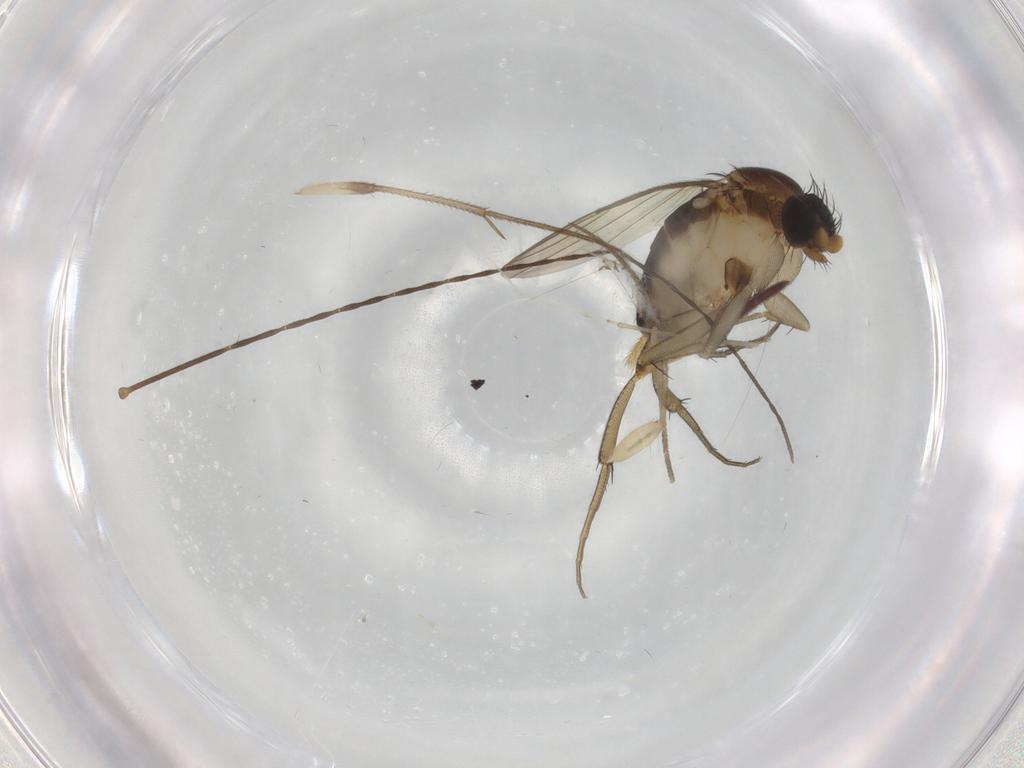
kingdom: Animalia
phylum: Arthropoda
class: Insecta
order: Diptera
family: Limoniidae
